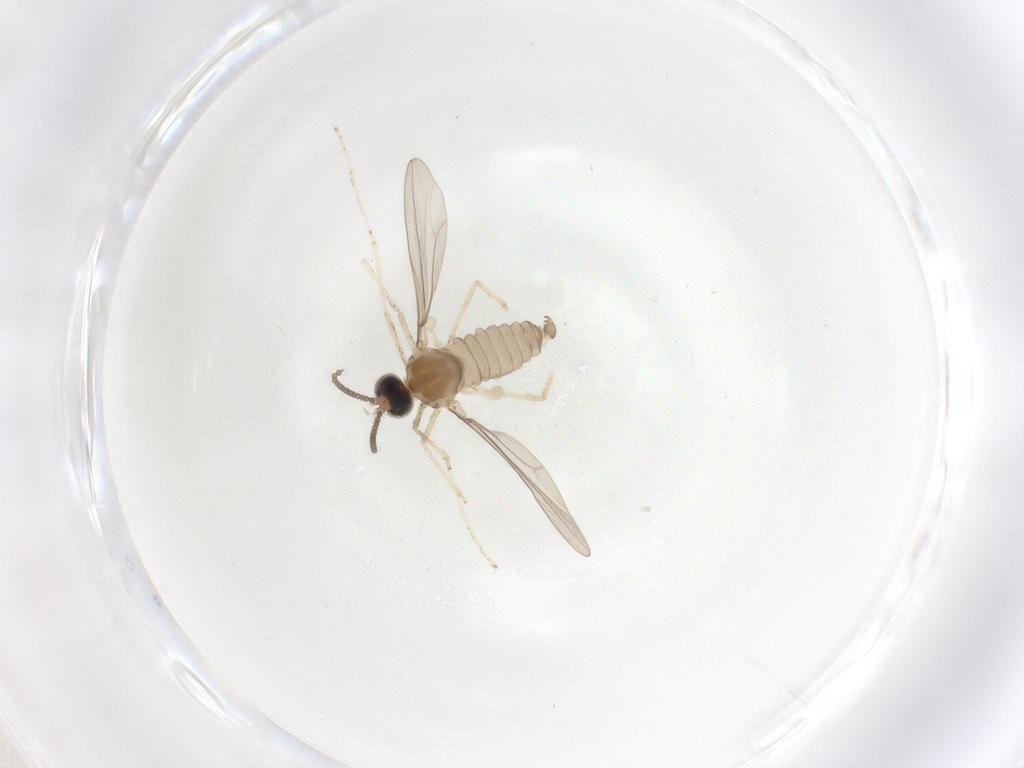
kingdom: Animalia
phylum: Arthropoda
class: Insecta
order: Diptera
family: Cecidomyiidae
